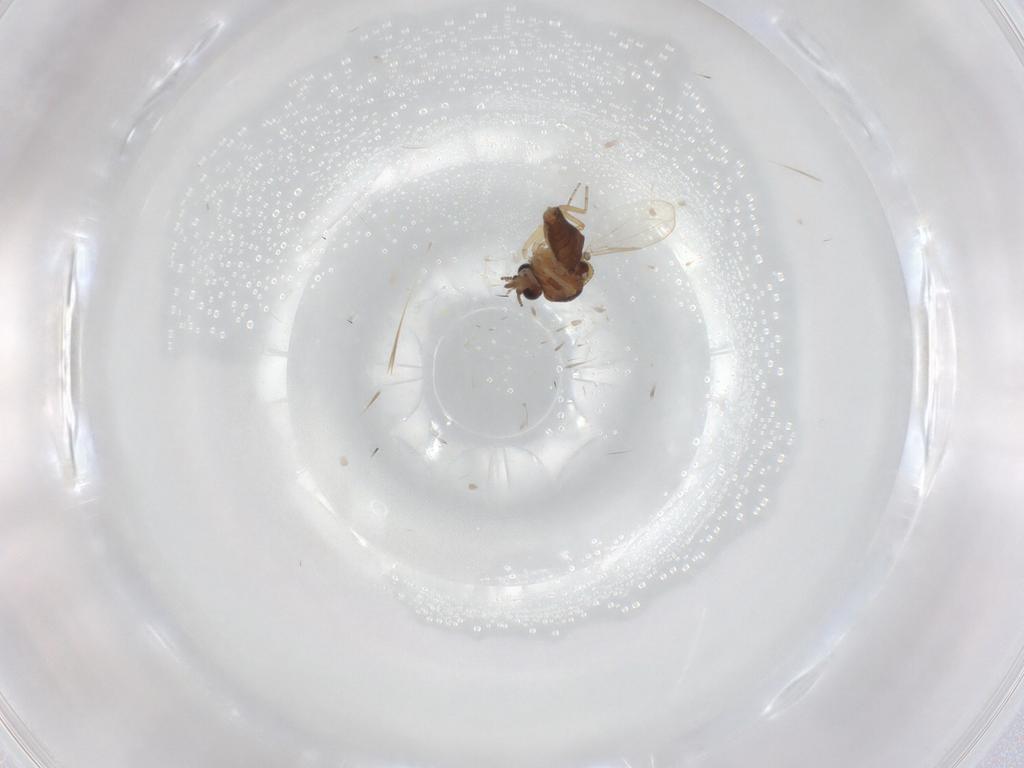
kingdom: Animalia
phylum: Arthropoda
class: Insecta
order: Diptera
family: Ceratopogonidae
